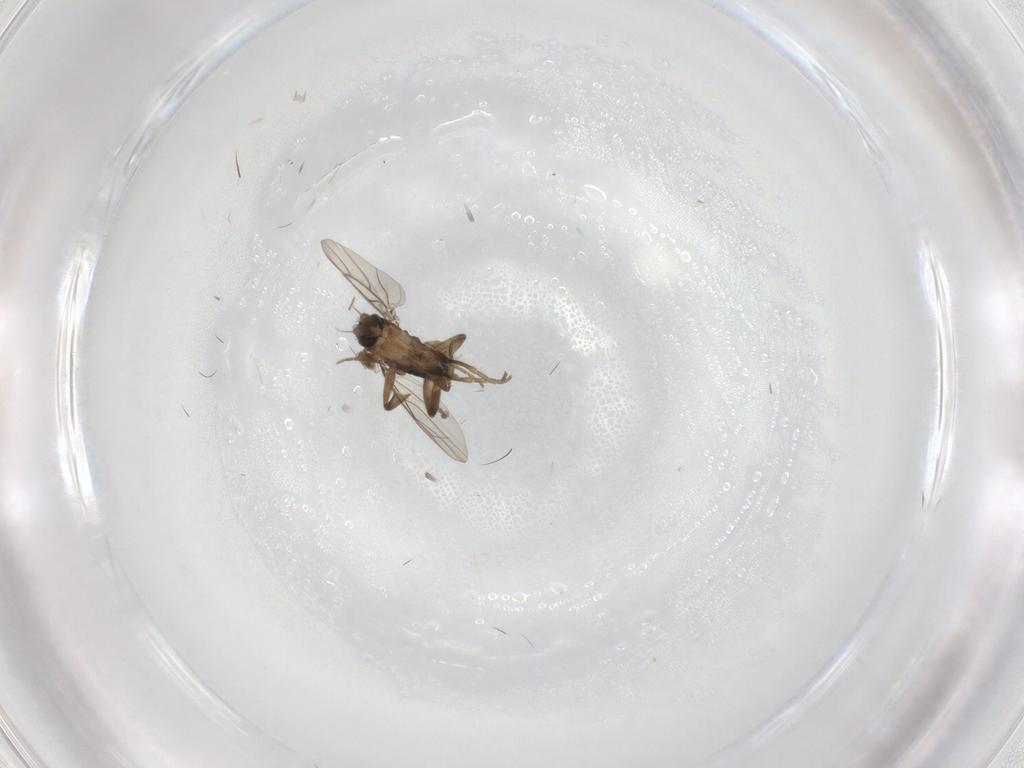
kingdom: Animalia
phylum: Arthropoda
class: Insecta
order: Diptera
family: Phoridae
